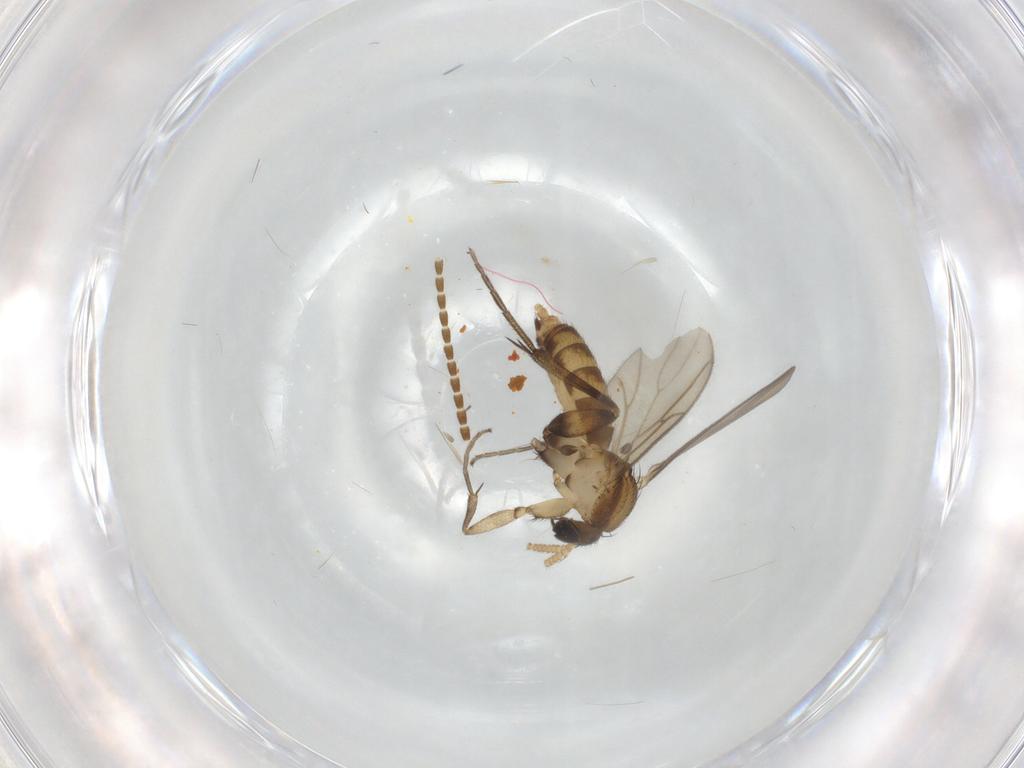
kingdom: Animalia
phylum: Arthropoda
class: Insecta
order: Diptera
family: Mycetophilidae
